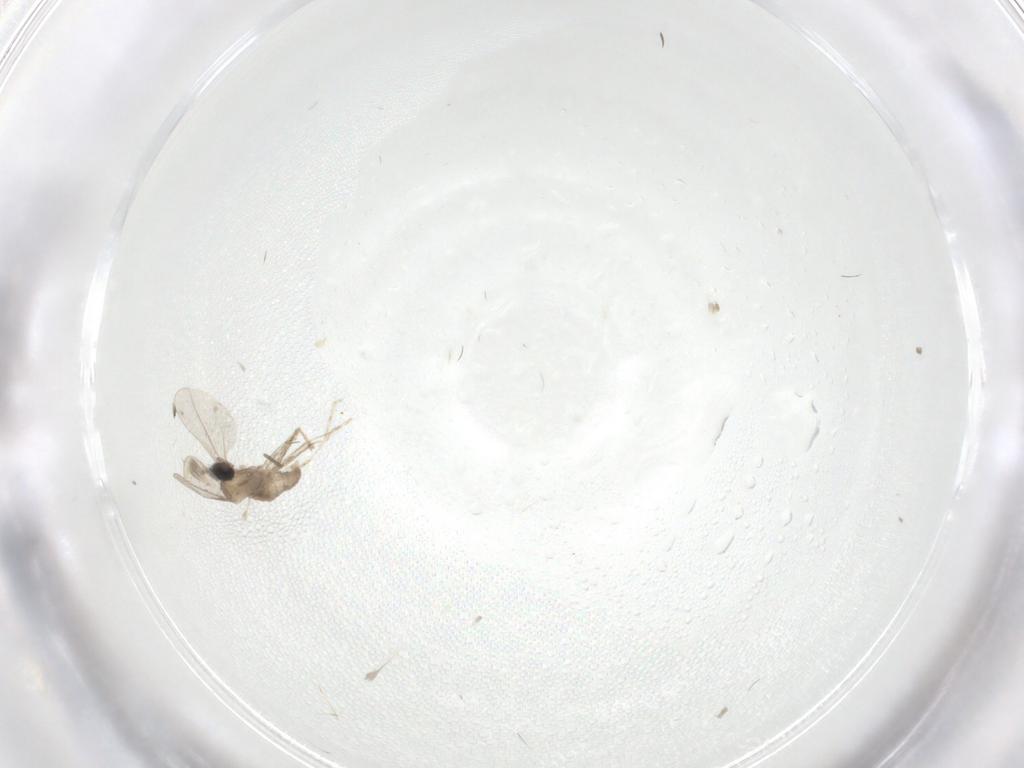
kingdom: Animalia
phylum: Arthropoda
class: Insecta
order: Diptera
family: Cecidomyiidae
